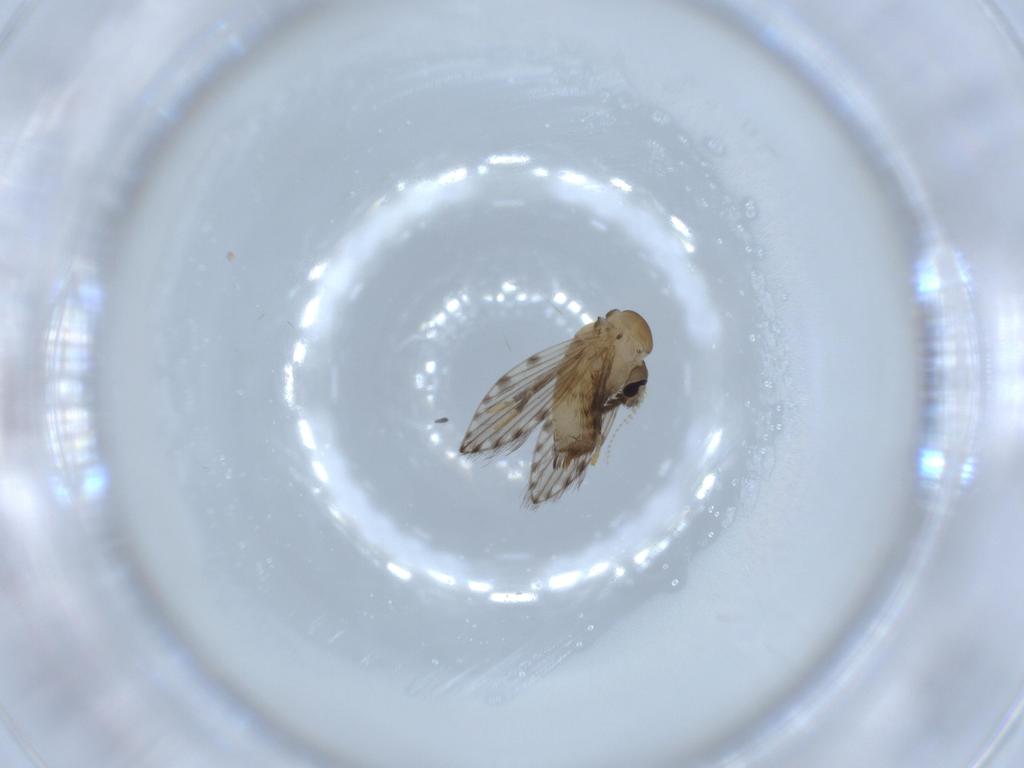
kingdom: Animalia
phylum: Arthropoda
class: Insecta
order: Diptera
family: Psychodidae
